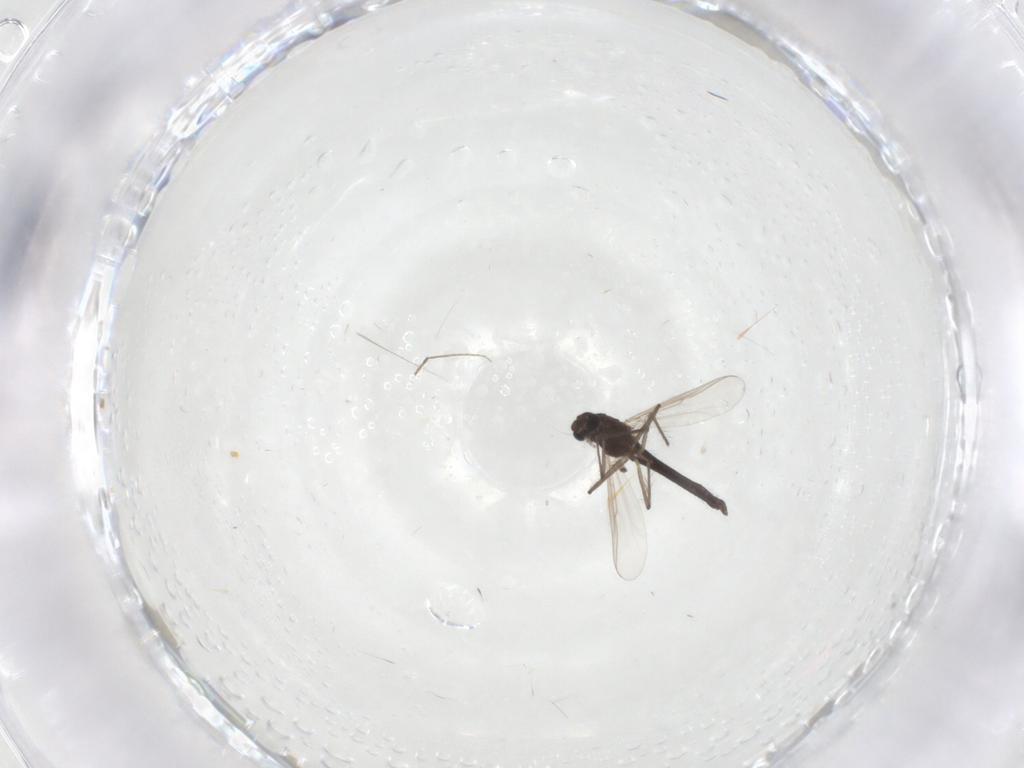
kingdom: Animalia
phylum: Arthropoda
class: Insecta
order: Diptera
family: Chironomidae
